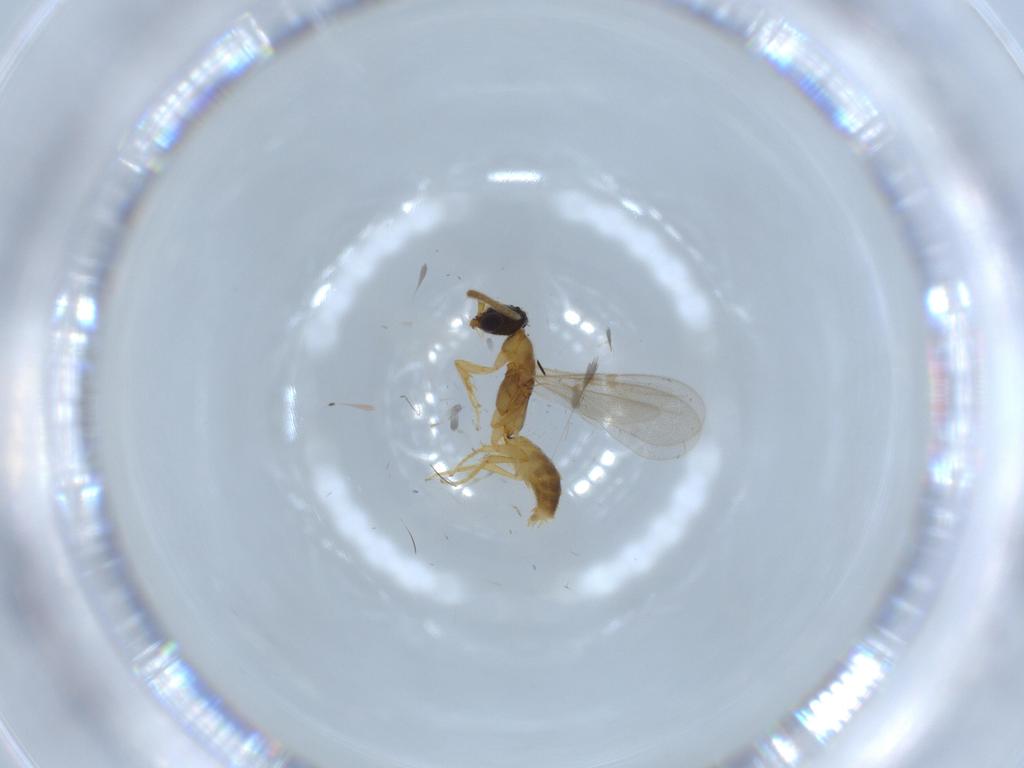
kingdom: Animalia
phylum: Arthropoda
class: Insecta
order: Hymenoptera
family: Bethylidae
